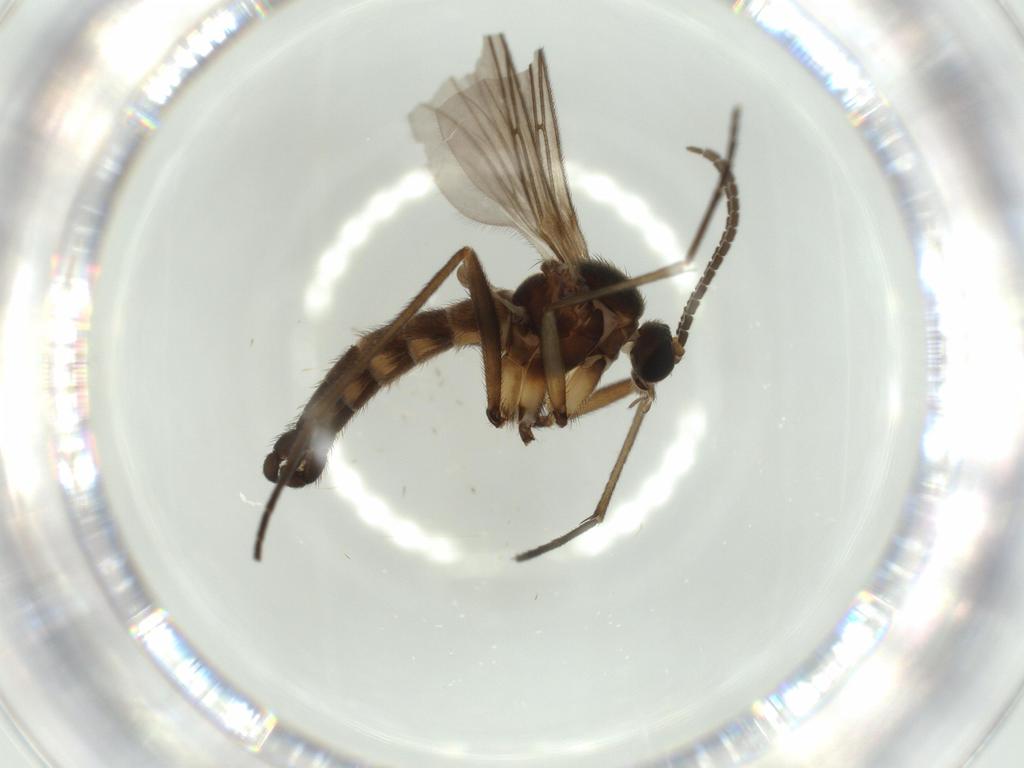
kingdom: Animalia
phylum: Arthropoda
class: Insecta
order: Diptera
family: Sciaridae
